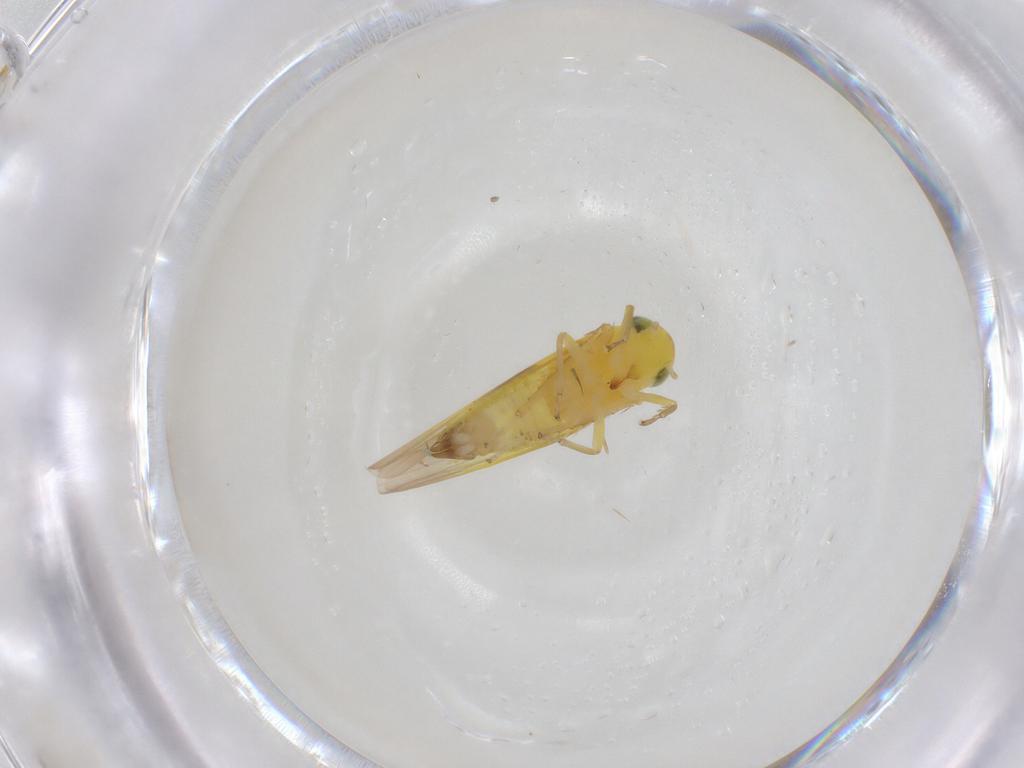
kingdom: Animalia
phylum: Arthropoda
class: Insecta
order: Hemiptera
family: Cicadellidae
